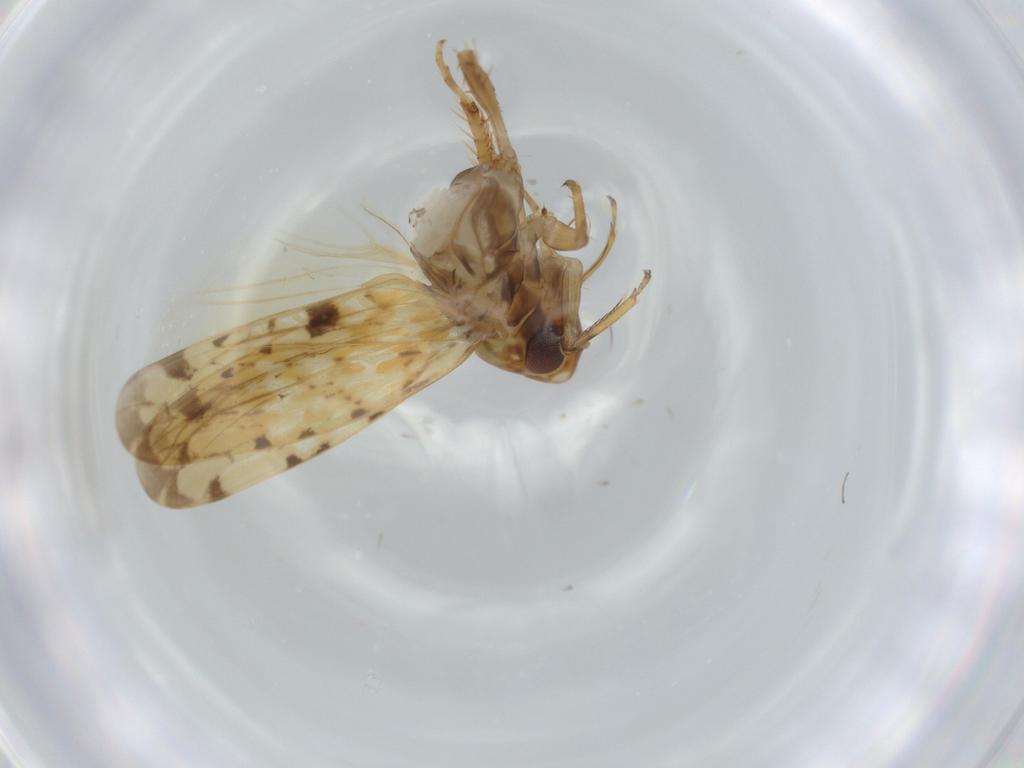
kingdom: Animalia
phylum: Arthropoda
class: Insecta
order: Hemiptera
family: Cicadellidae
